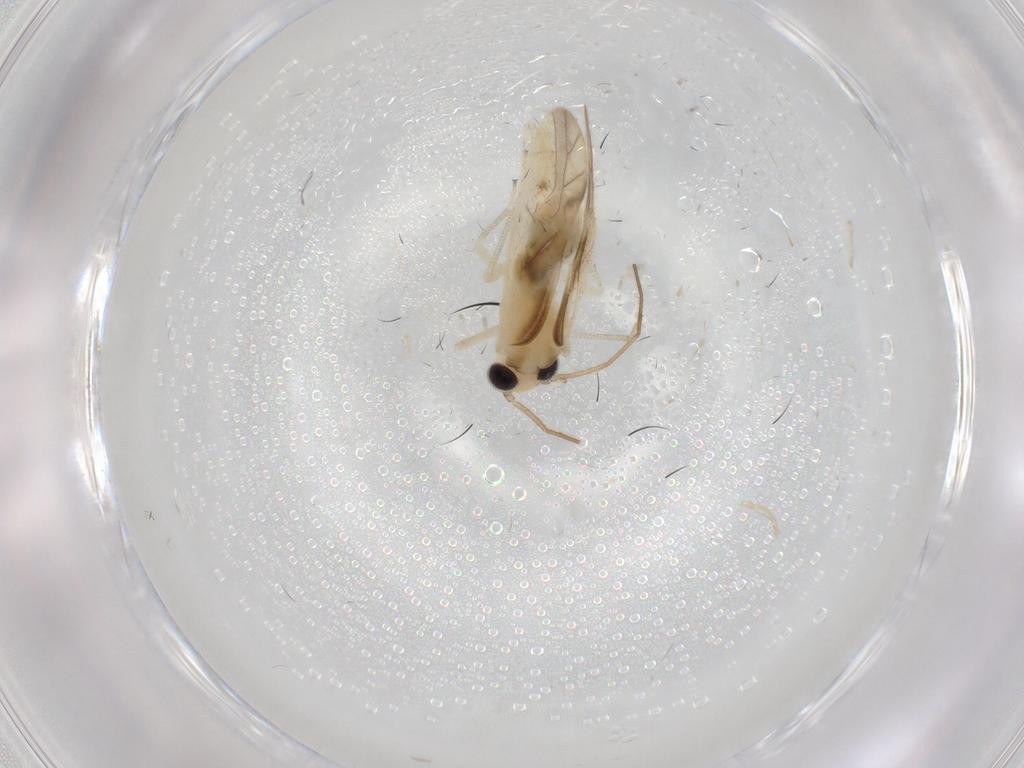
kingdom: Animalia
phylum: Arthropoda
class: Insecta
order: Psocodea
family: Caeciliusidae
